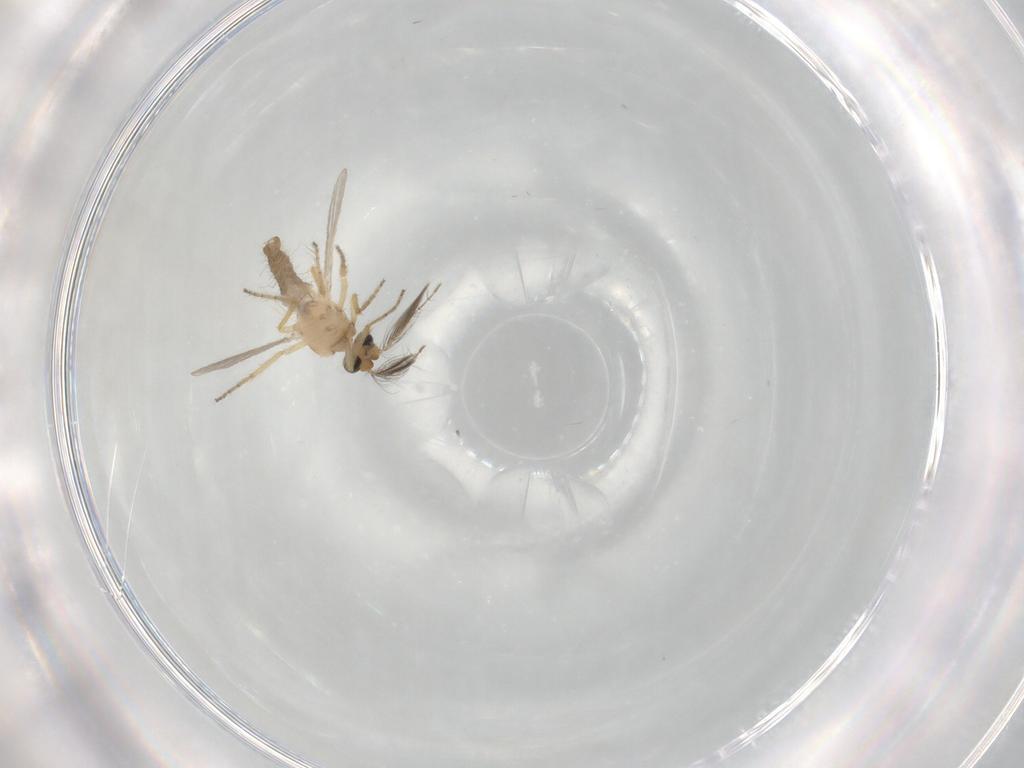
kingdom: Animalia
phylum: Arthropoda
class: Insecta
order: Diptera
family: Ceratopogonidae
